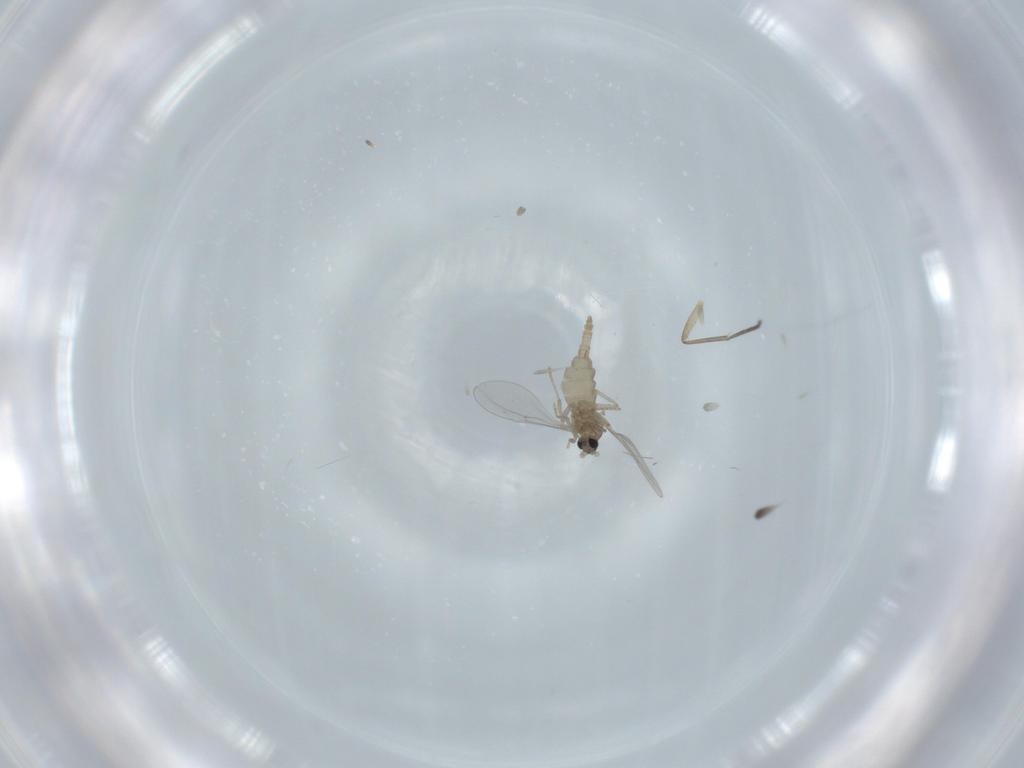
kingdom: Animalia
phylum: Arthropoda
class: Insecta
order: Diptera
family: Cecidomyiidae
